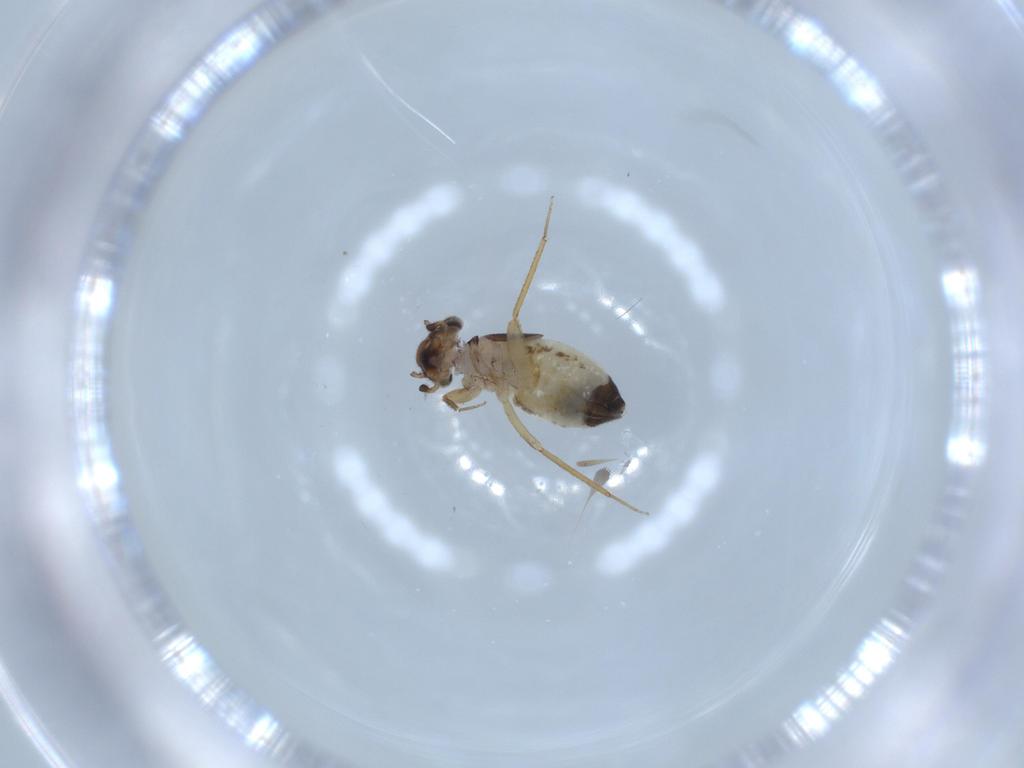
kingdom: Animalia
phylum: Arthropoda
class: Insecta
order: Psocodea
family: Lepidopsocidae
